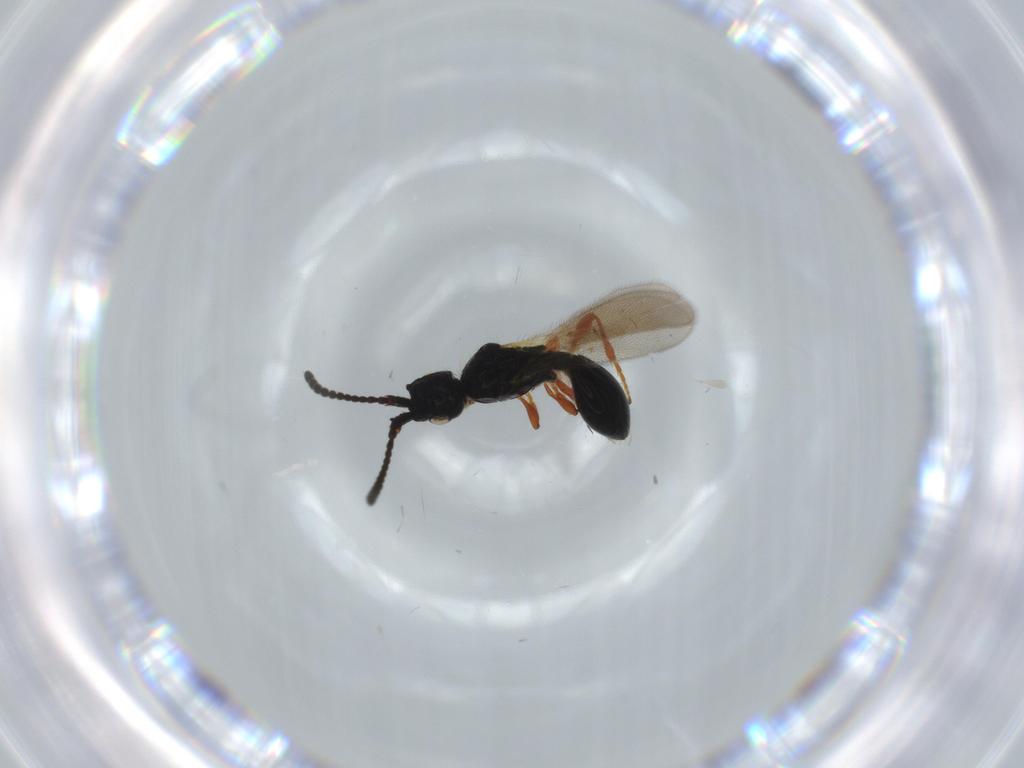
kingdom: Animalia
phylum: Arthropoda
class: Insecta
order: Hymenoptera
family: Diapriidae
